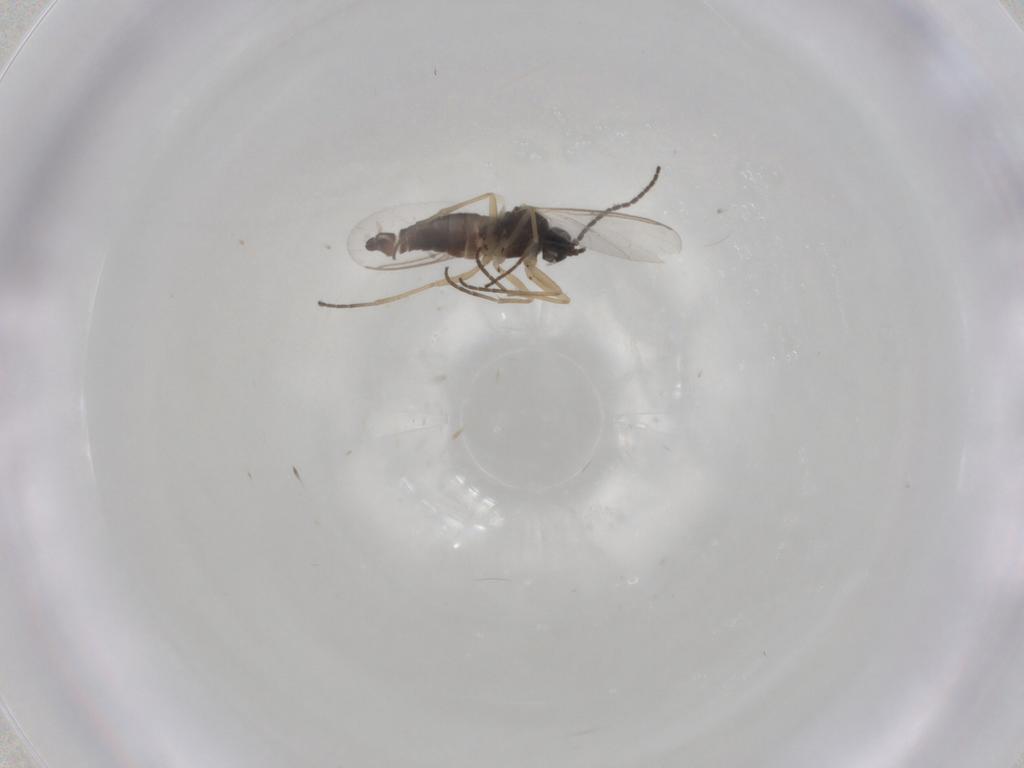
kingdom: Animalia
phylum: Arthropoda
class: Insecta
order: Diptera
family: Sciaridae
